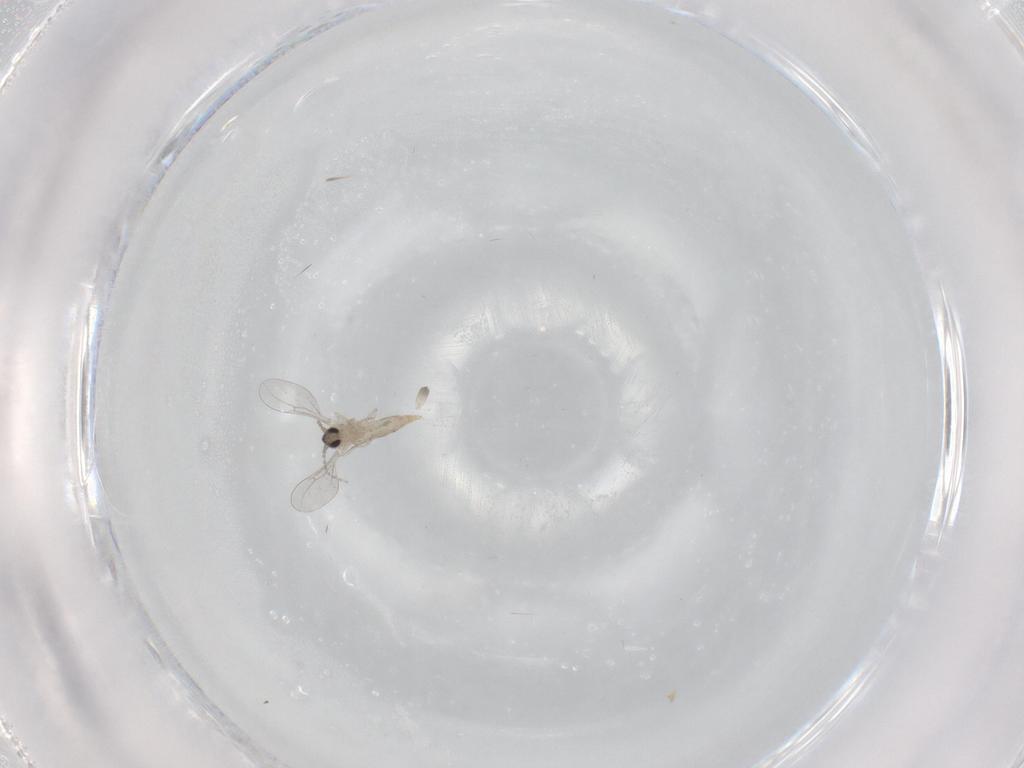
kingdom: Animalia
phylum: Arthropoda
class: Insecta
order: Diptera
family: Cecidomyiidae
